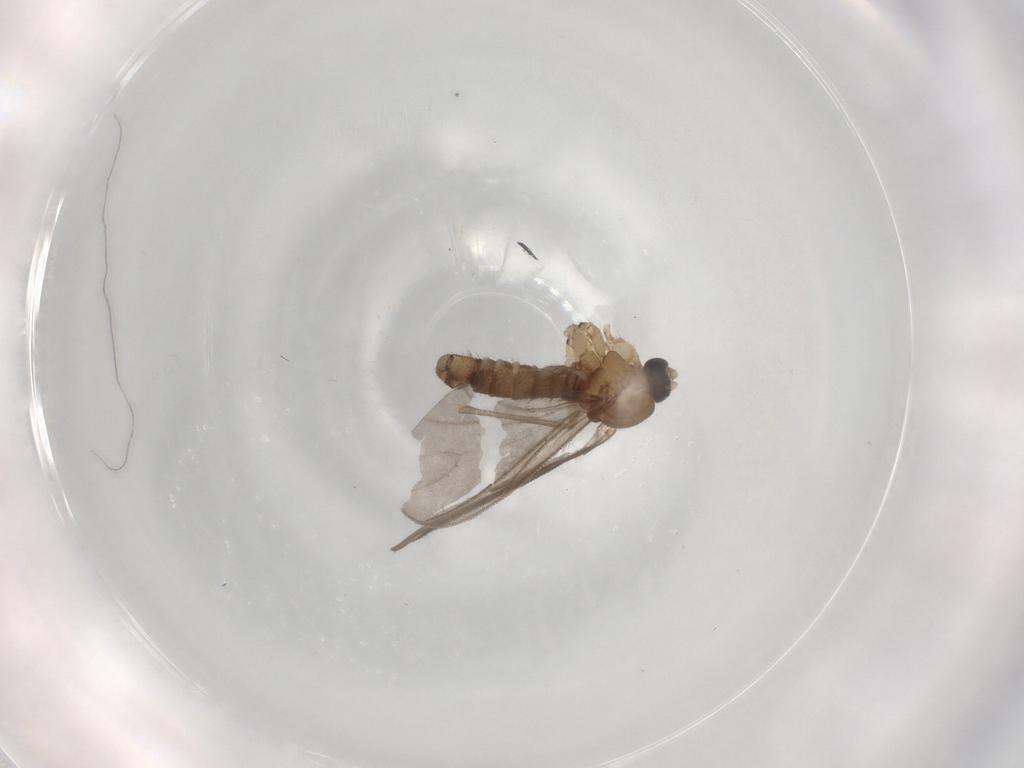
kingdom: Animalia
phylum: Arthropoda
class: Insecta
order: Diptera
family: Sciaridae
